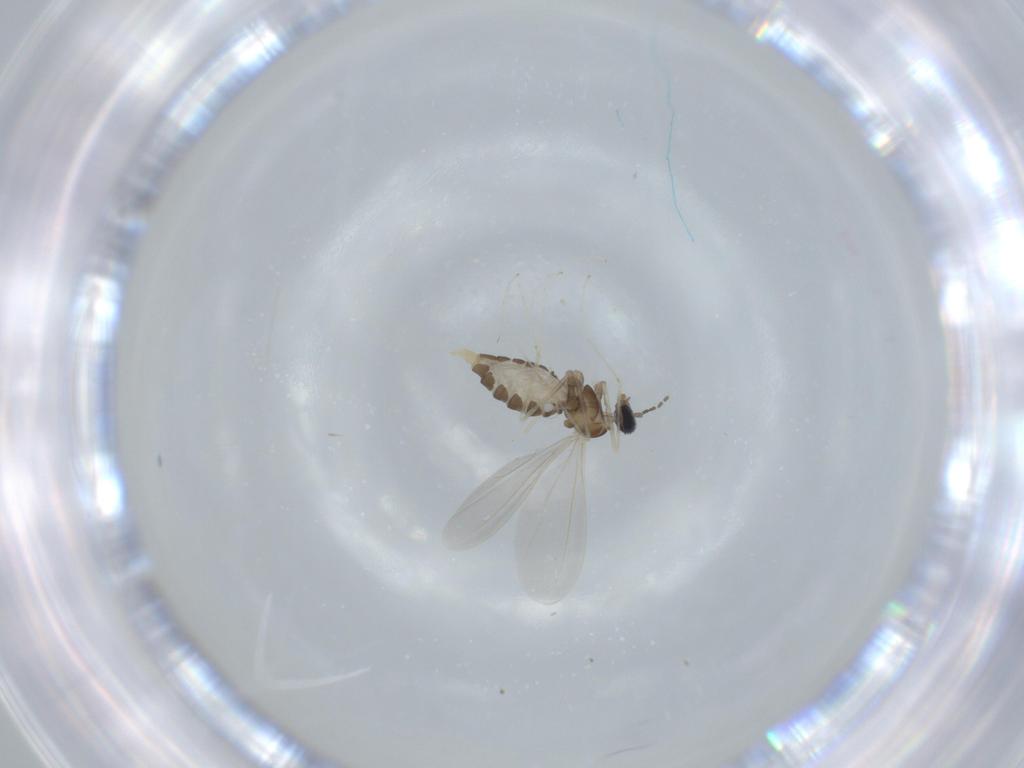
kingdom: Animalia
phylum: Arthropoda
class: Insecta
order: Diptera
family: Cecidomyiidae
